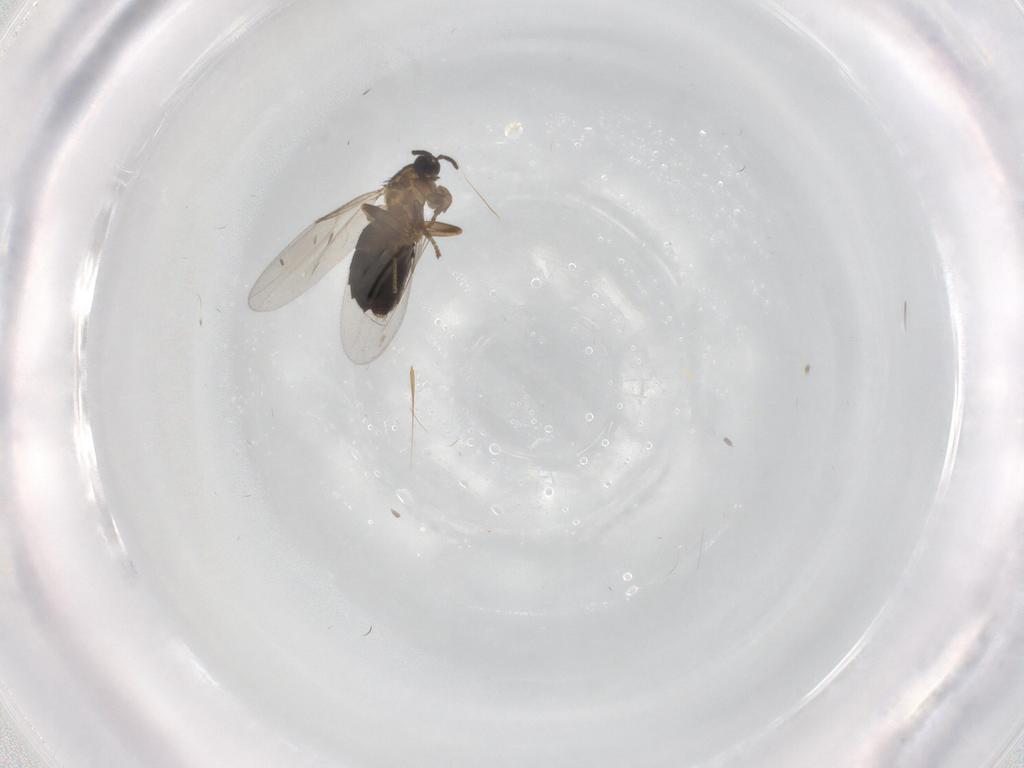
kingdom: Animalia
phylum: Arthropoda
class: Insecta
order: Diptera
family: Scatopsidae
